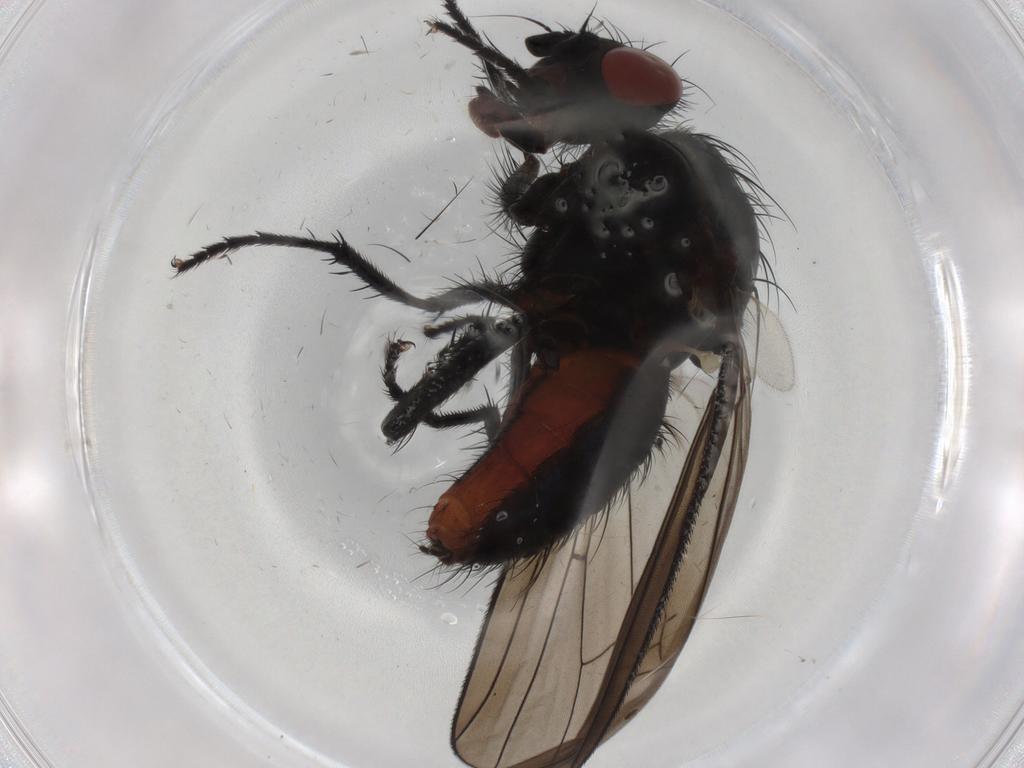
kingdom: Animalia
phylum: Arthropoda
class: Insecta
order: Diptera
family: Anthomyiidae
